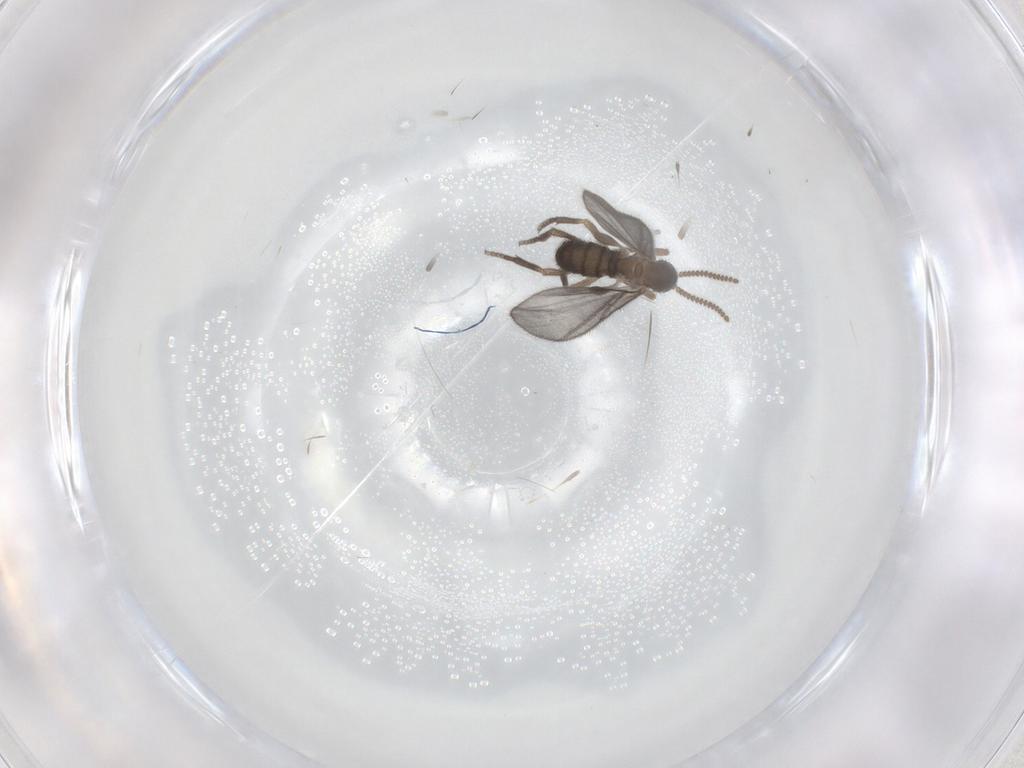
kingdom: Animalia
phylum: Arthropoda
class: Insecta
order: Diptera
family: Sciaridae
